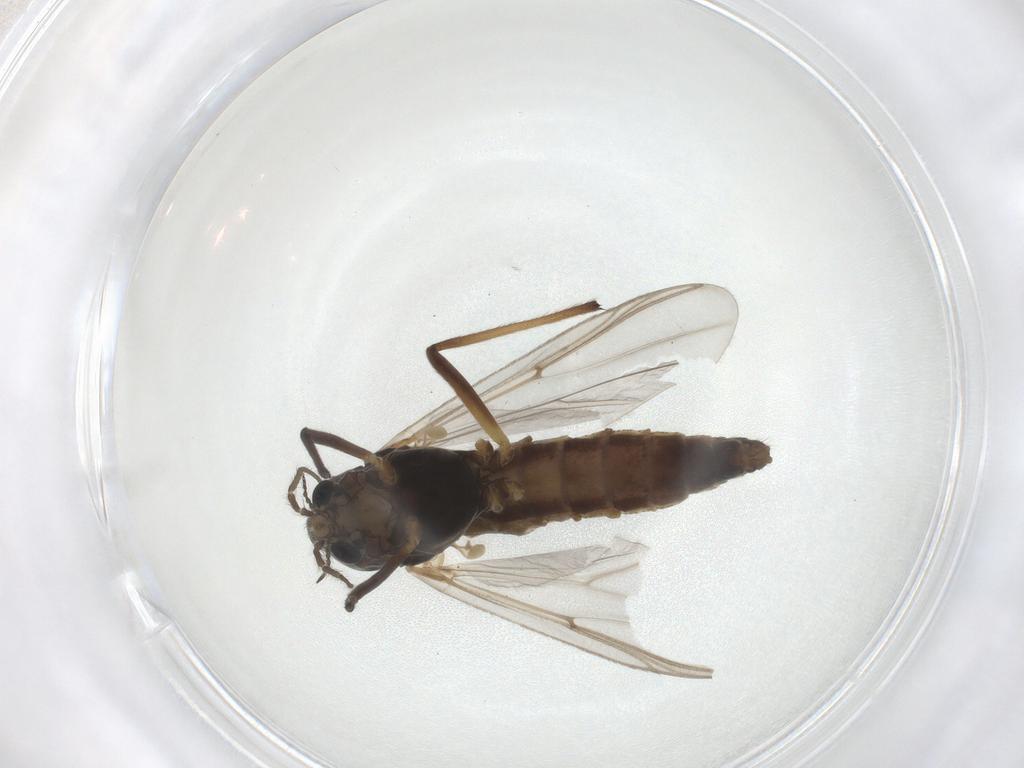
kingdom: Animalia
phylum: Arthropoda
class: Insecta
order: Diptera
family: Chironomidae
